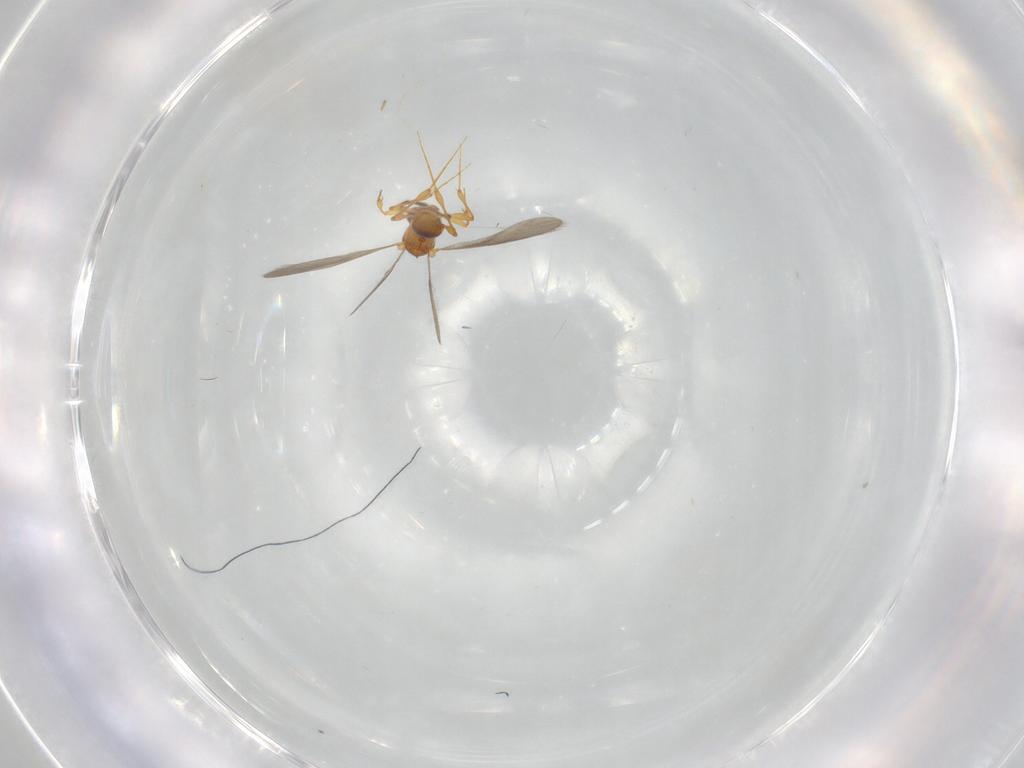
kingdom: Animalia
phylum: Arthropoda
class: Insecta
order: Hymenoptera
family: Platygastridae
